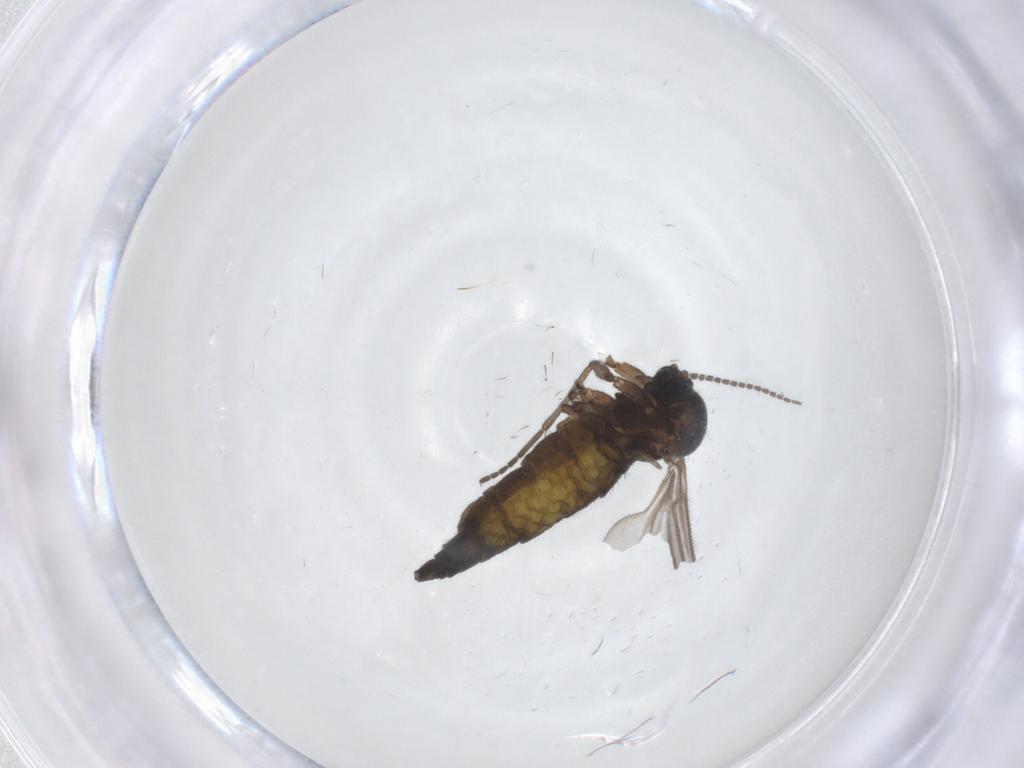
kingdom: Animalia
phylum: Arthropoda
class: Insecta
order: Diptera
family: Sciaridae
